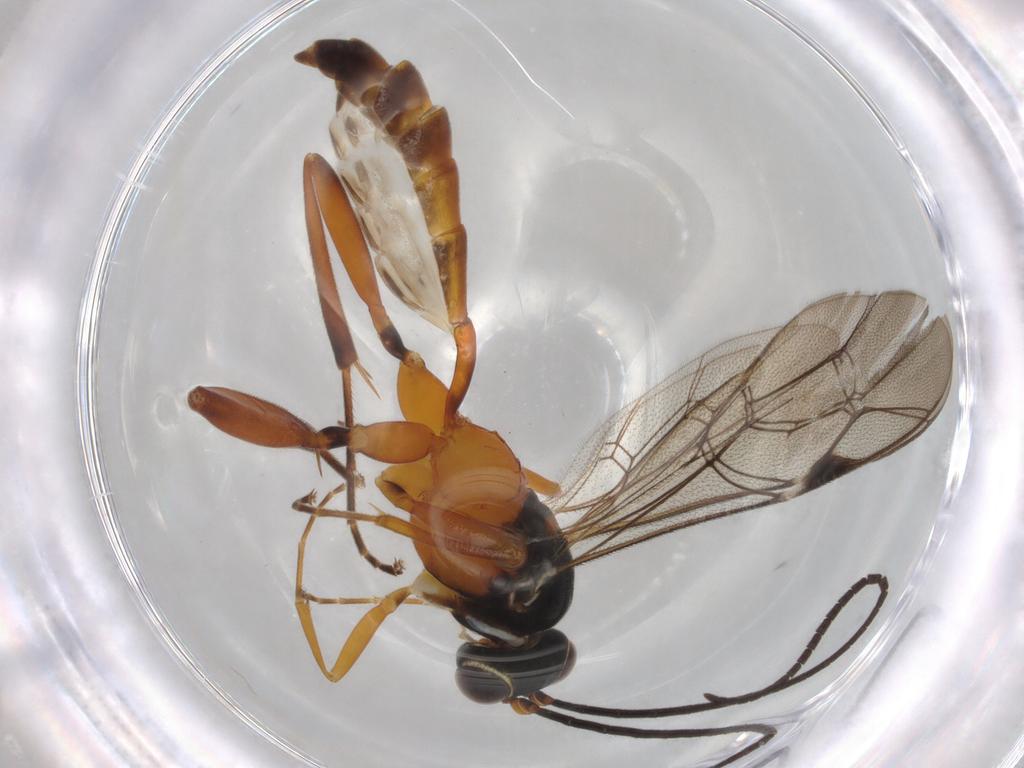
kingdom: Animalia
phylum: Arthropoda
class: Insecta
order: Hymenoptera
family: Ichneumonidae
